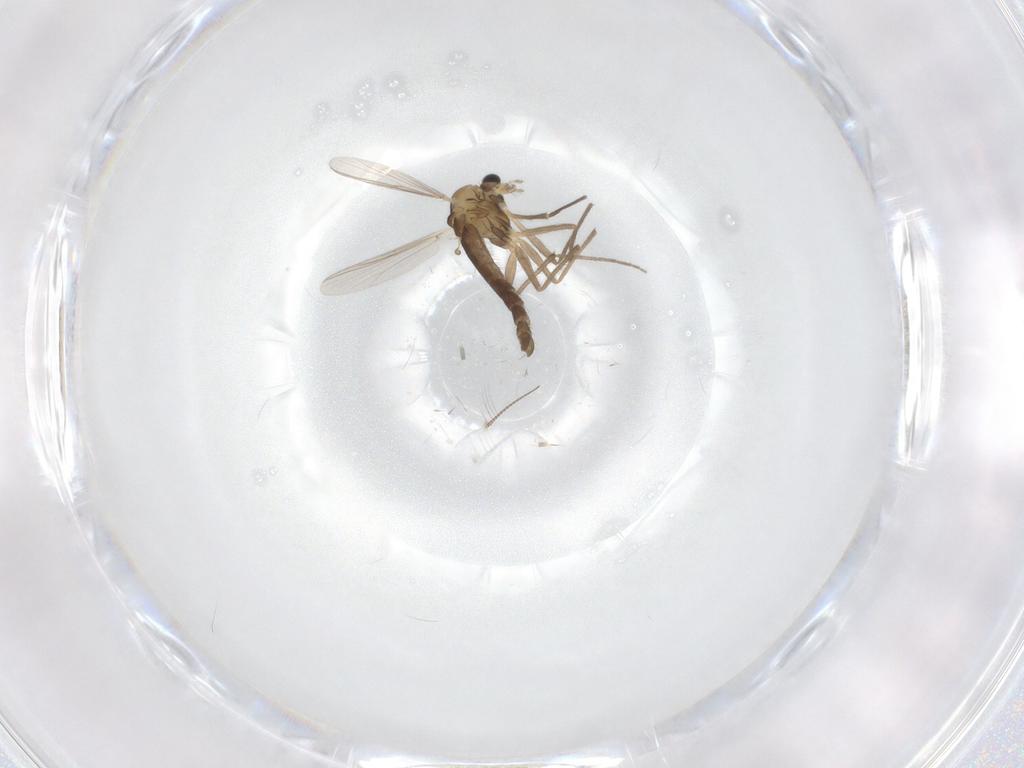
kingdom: Animalia
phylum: Arthropoda
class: Insecta
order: Diptera
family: Chironomidae
